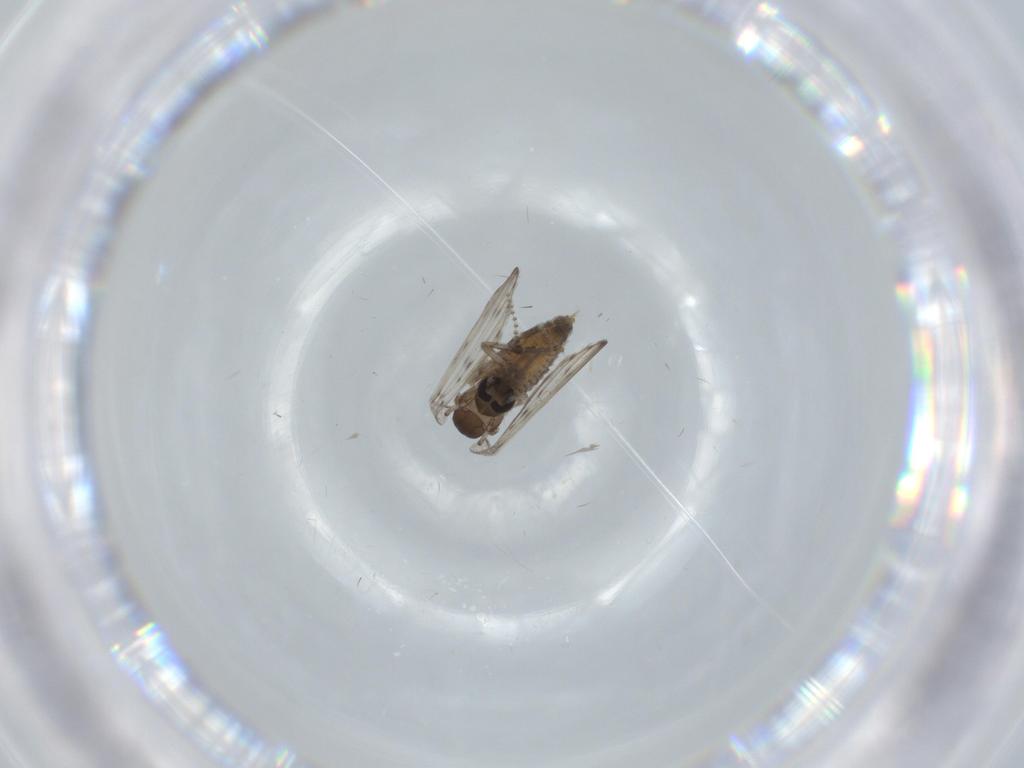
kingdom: Animalia
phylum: Arthropoda
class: Insecta
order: Diptera
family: Psychodidae
